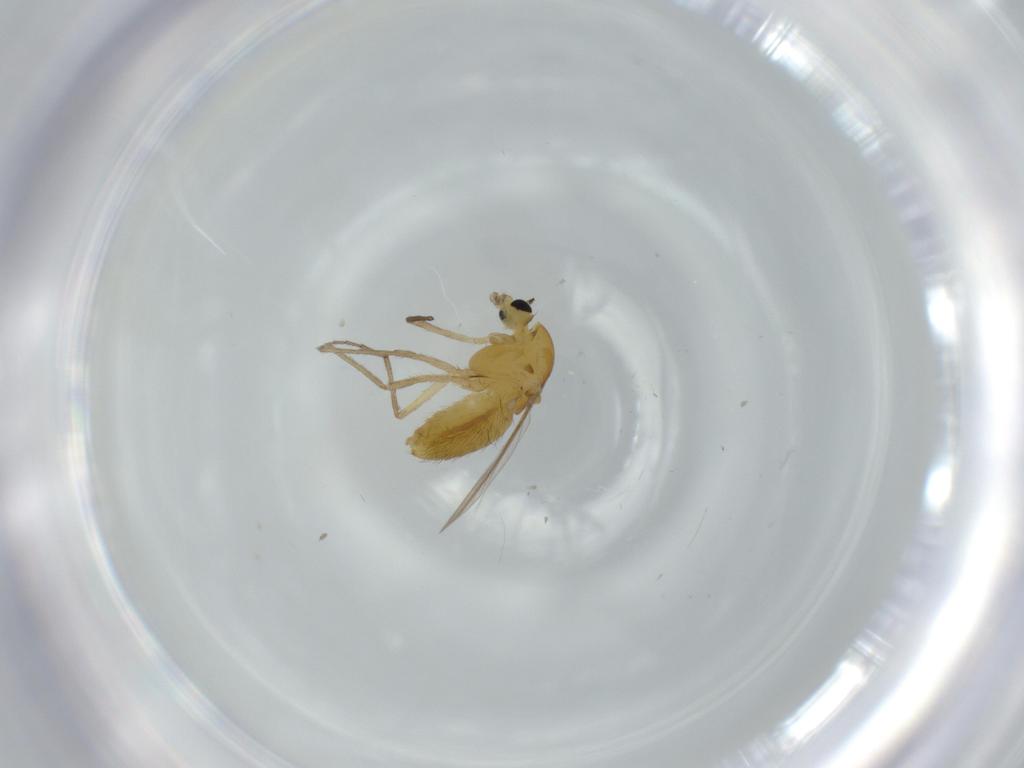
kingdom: Animalia
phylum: Arthropoda
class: Insecta
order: Diptera
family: Chironomidae
